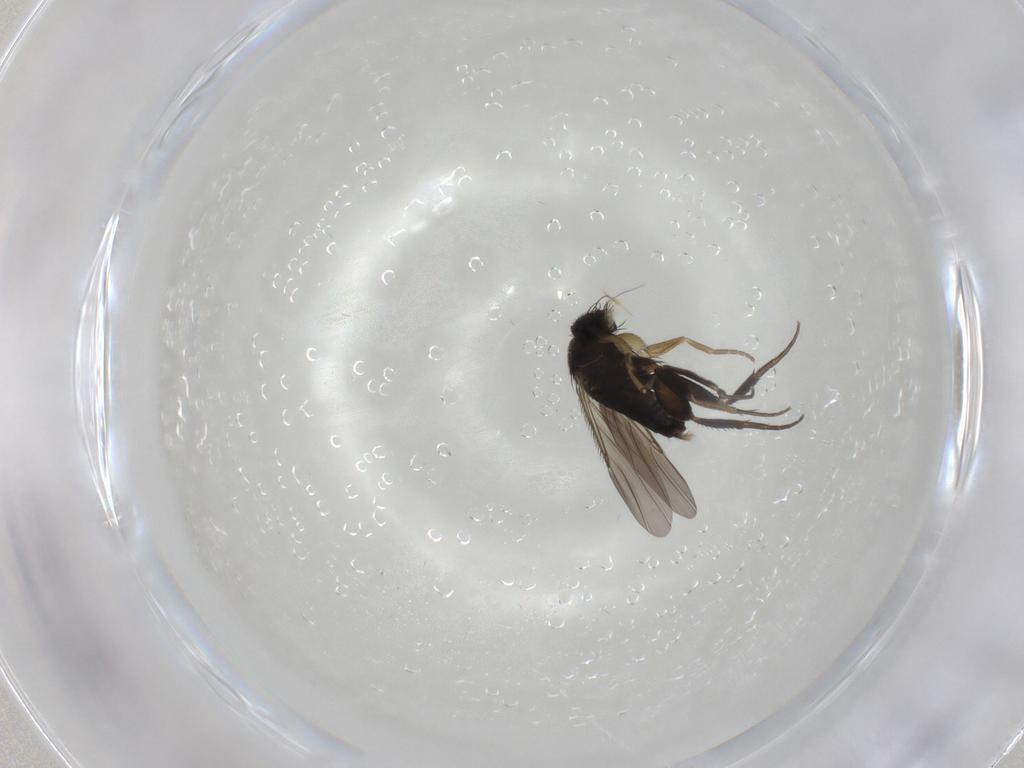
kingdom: Animalia
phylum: Arthropoda
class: Insecta
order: Diptera
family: Phoridae
